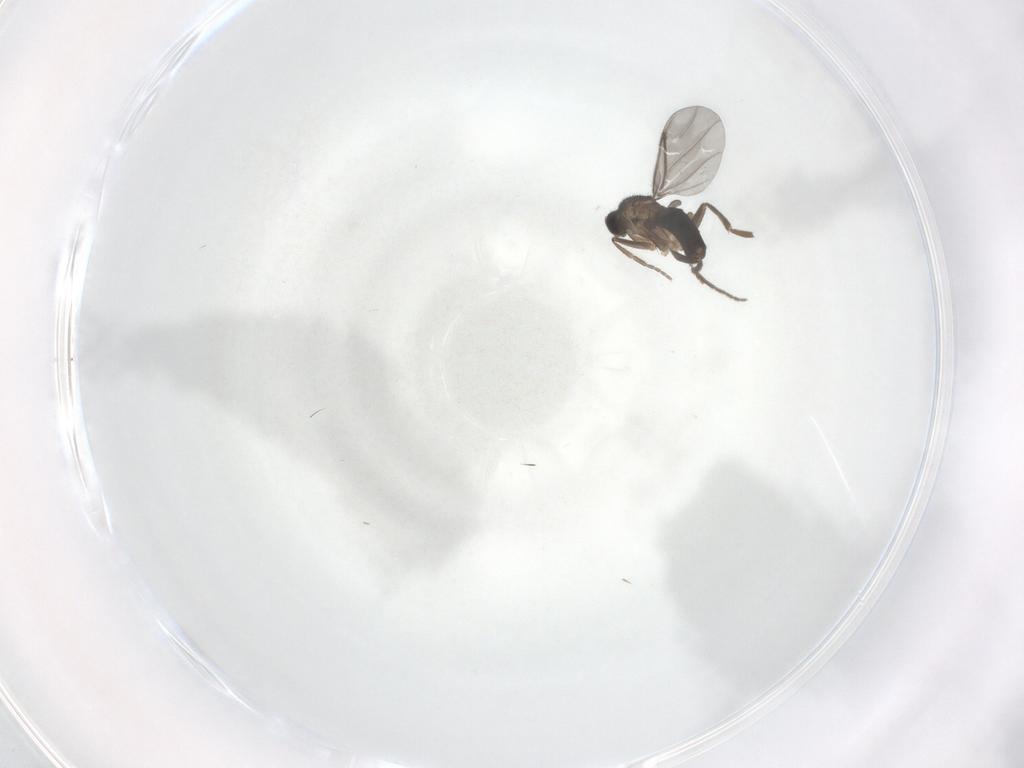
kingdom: Animalia
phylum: Arthropoda
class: Insecta
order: Diptera
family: Phoridae
